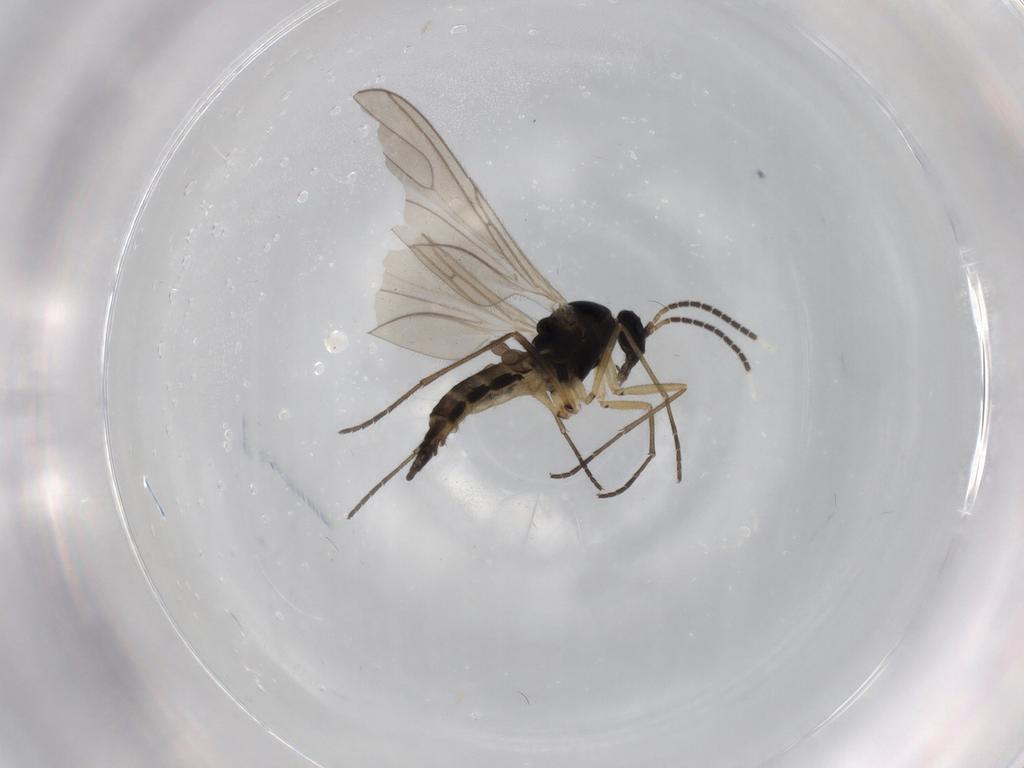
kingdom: Animalia
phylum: Arthropoda
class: Insecta
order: Diptera
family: Sciaridae
